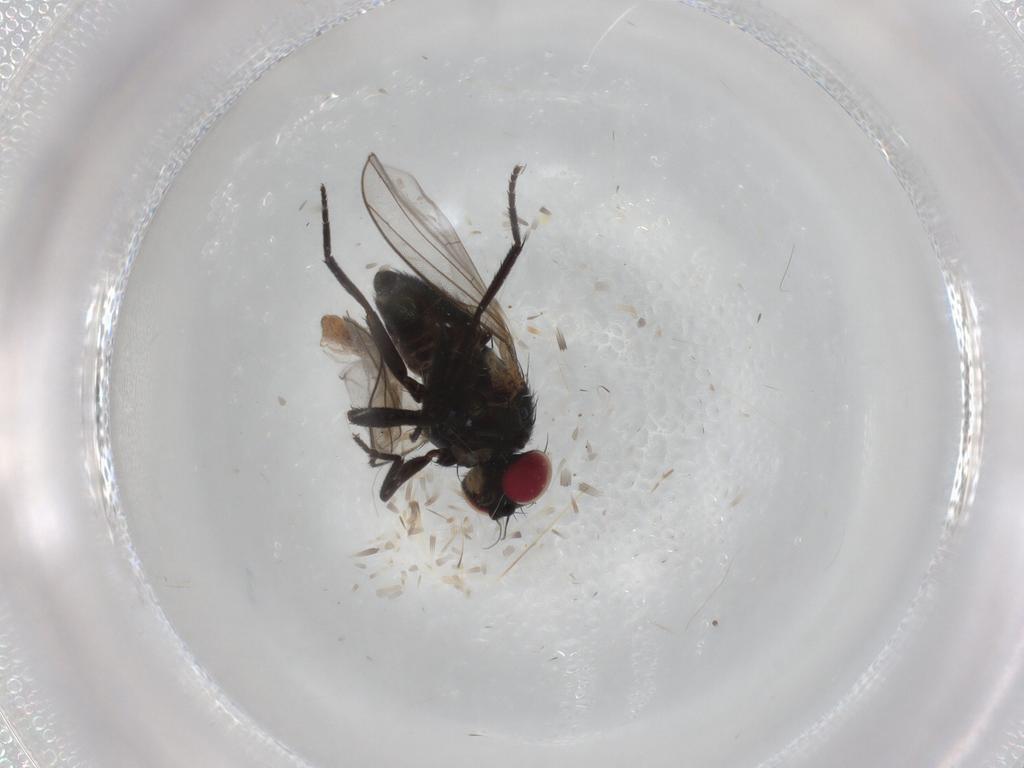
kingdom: Animalia
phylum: Arthropoda
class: Insecta
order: Diptera
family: Agromyzidae
